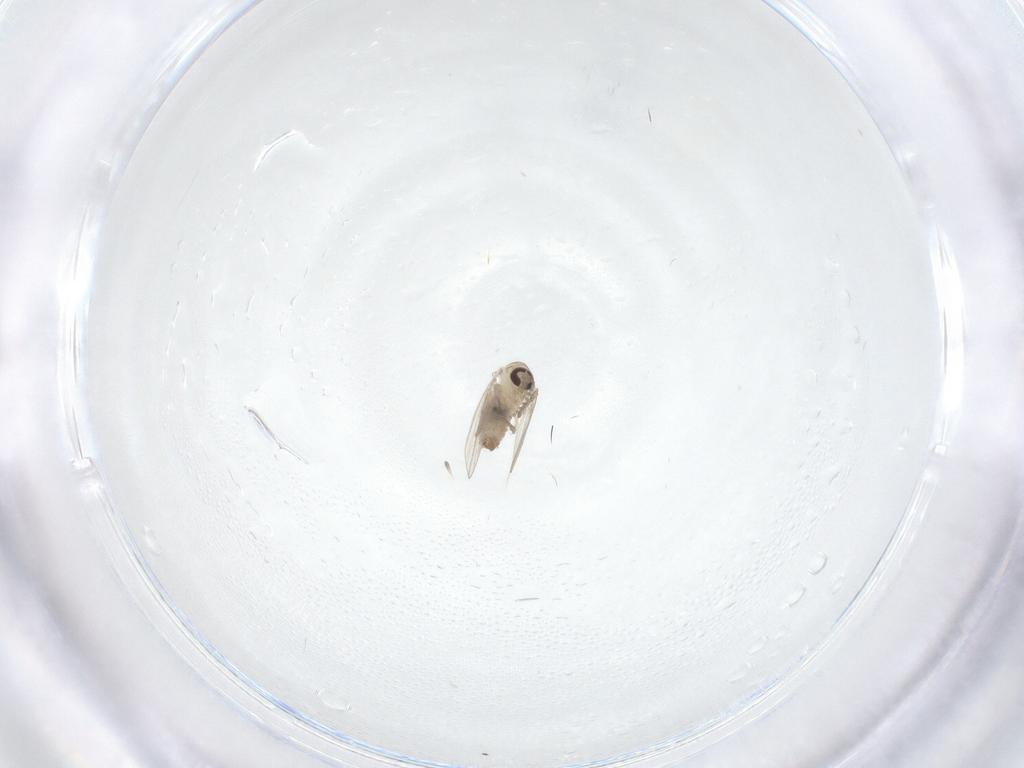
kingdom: Animalia
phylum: Arthropoda
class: Insecta
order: Diptera
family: Psychodidae
